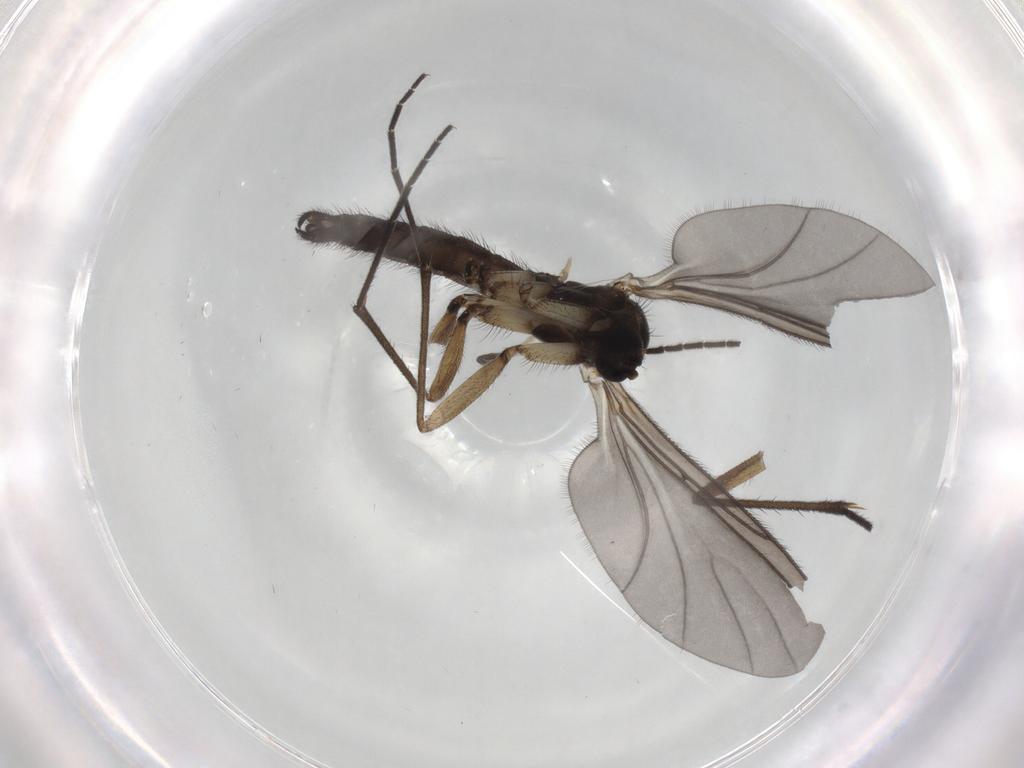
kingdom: Animalia
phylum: Arthropoda
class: Insecta
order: Diptera
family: Sciaridae
